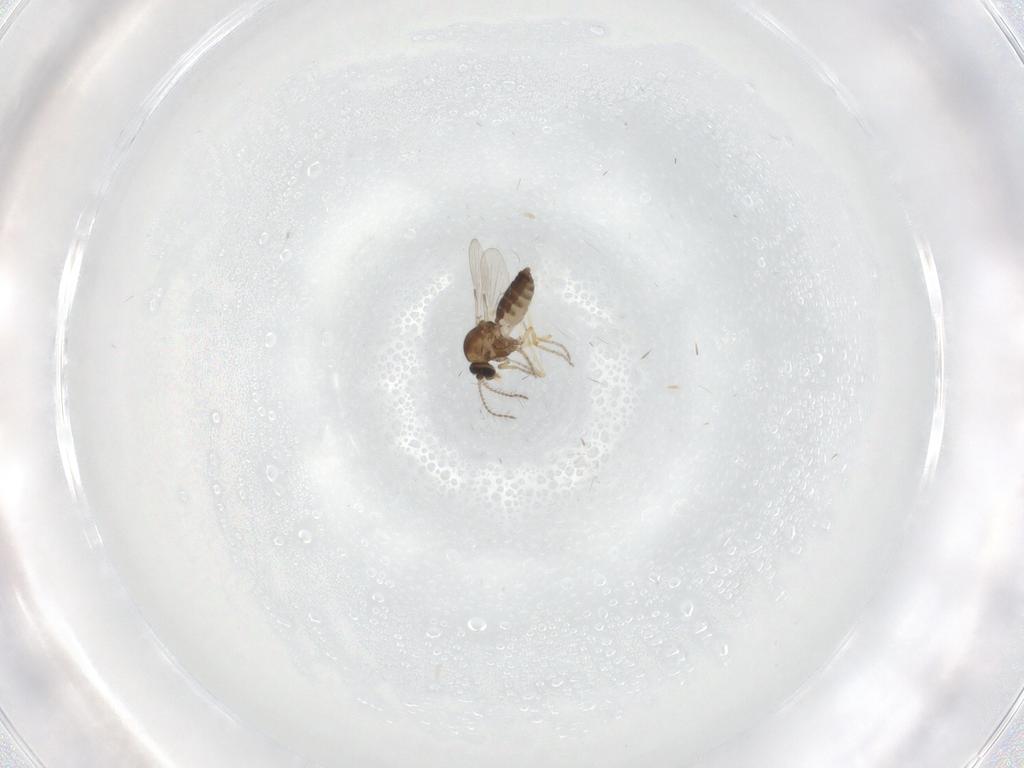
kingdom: Animalia
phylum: Arthropoda
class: Insecta
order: Diptera
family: Ceratopogonidae
